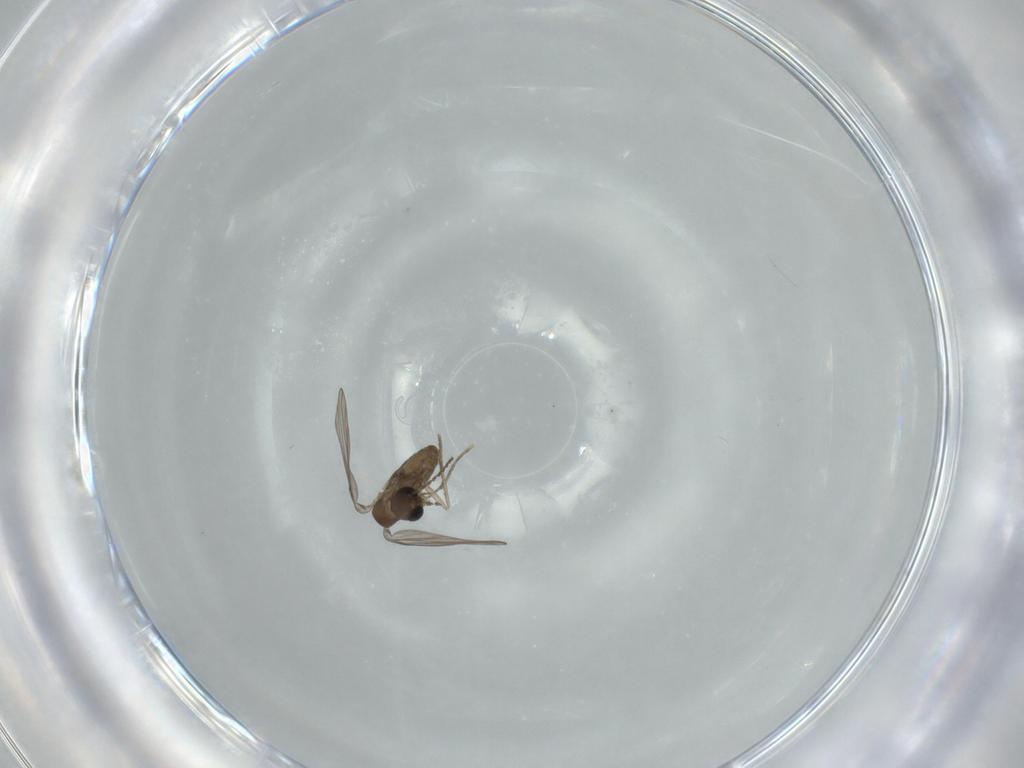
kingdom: Animalia
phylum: Arthropoda
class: Insecta
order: Diptera
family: Psychodidae
